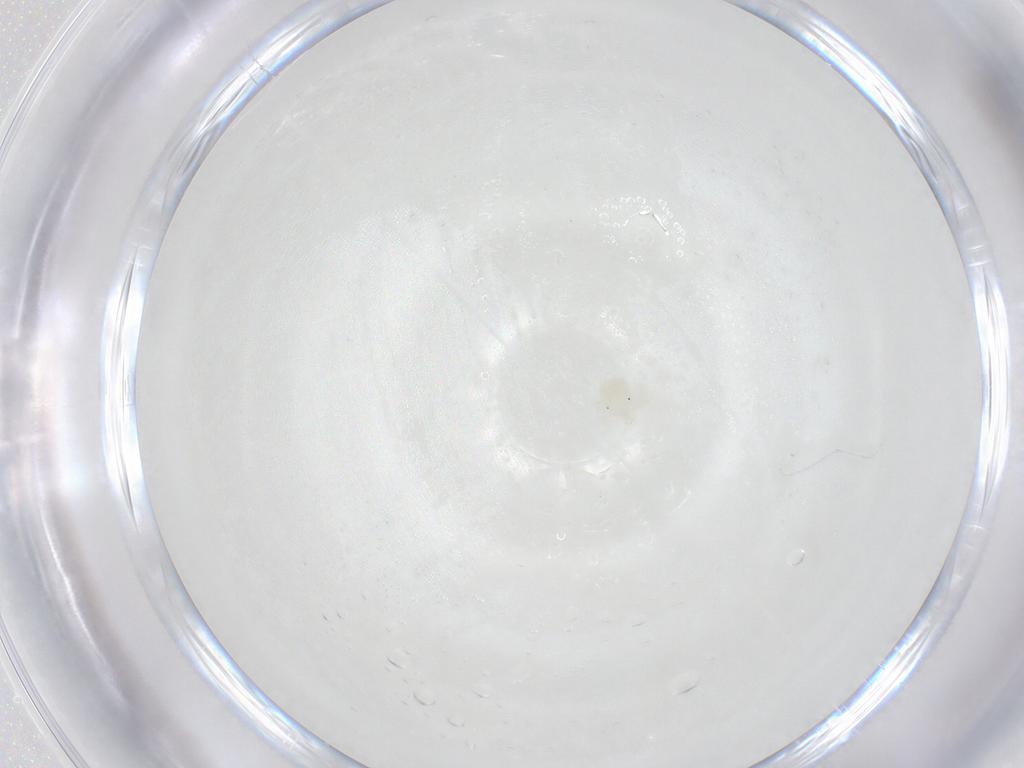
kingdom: Animalia
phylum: Arthropoda
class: Arachnida
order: Trombidiformes
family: Anystidae
